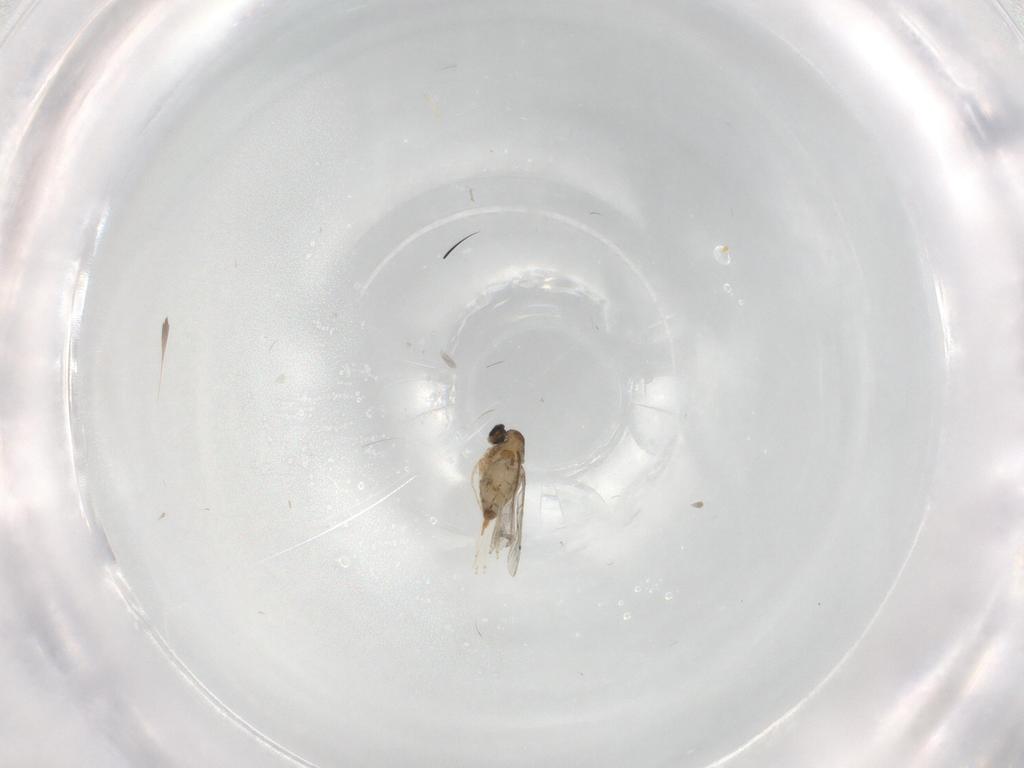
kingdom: Animalia
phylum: Arthropoda
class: Insecta
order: Diptera
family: Cecidomyiidae
